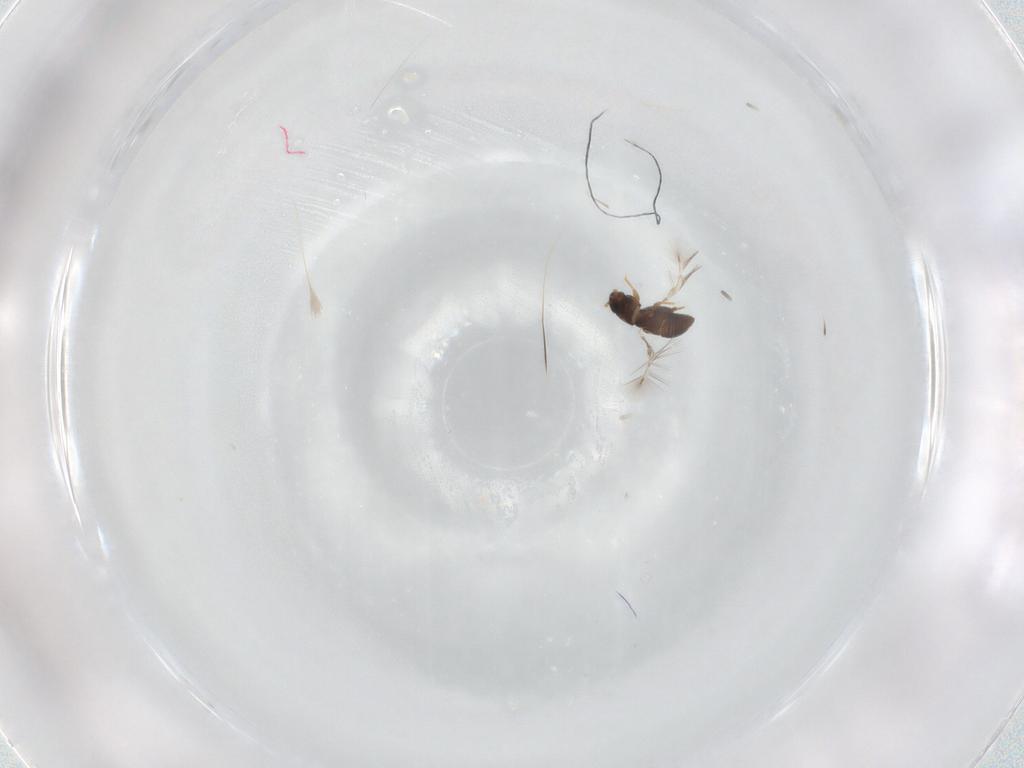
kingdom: Animalia
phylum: Arthropoda
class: Insecta
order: Coleoptera
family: Ptiliidae
